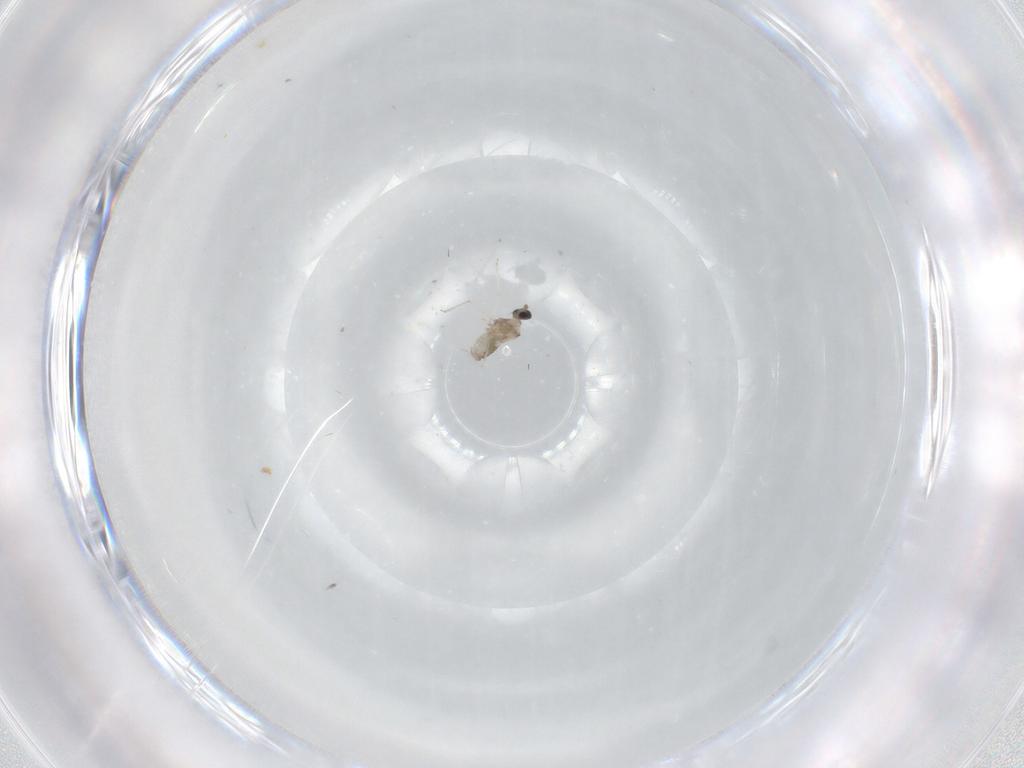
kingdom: Animalia
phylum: Arthropoda
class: Insecta
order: Diptera
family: Cecidomyiidae
